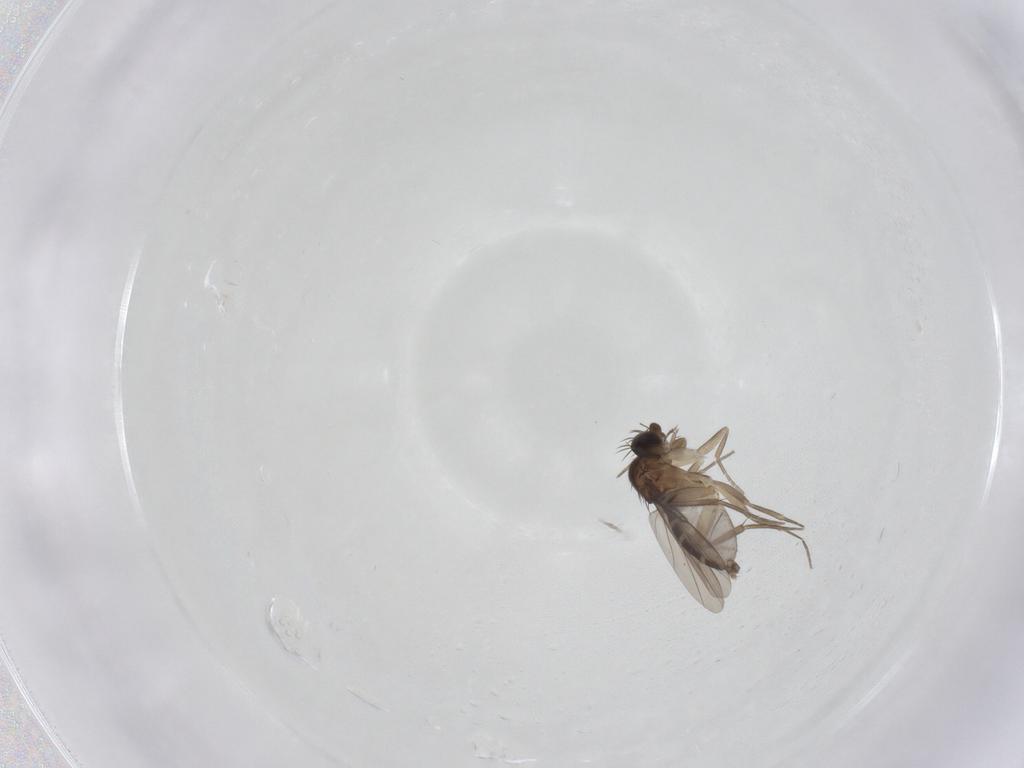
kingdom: Animalia
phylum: Arthropoda
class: Insecta
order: Diptera
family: Phoridae
